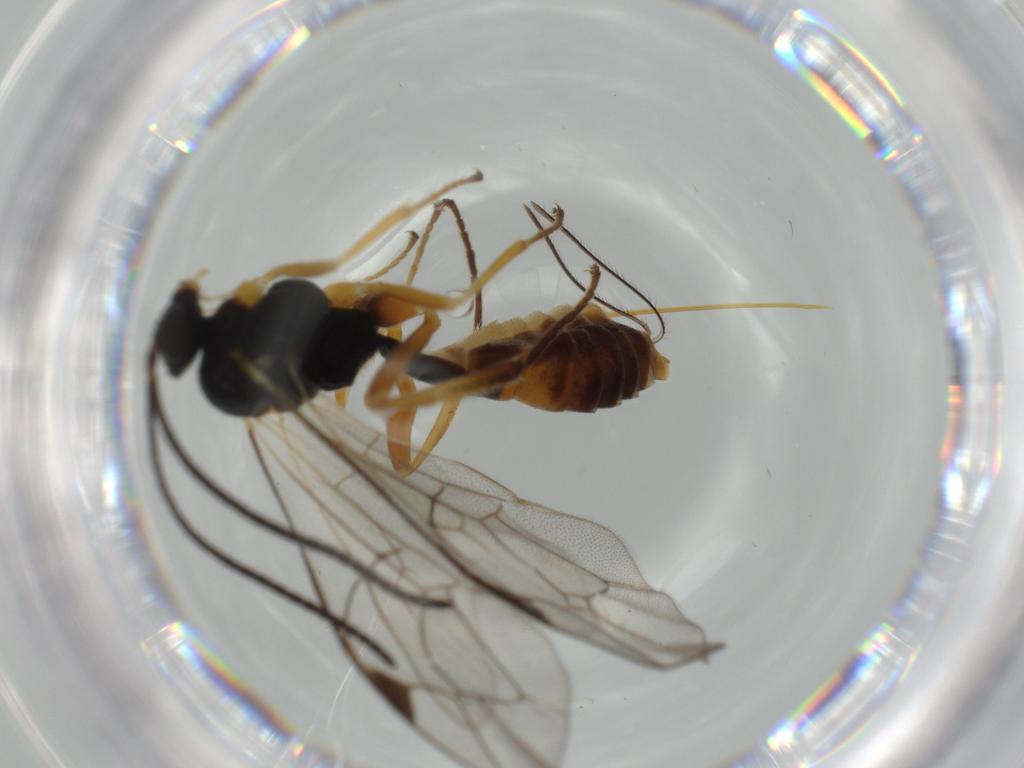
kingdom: Animalia
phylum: Arthropoda
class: Insecta
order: Hymenoptera
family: Ichneumonidae
